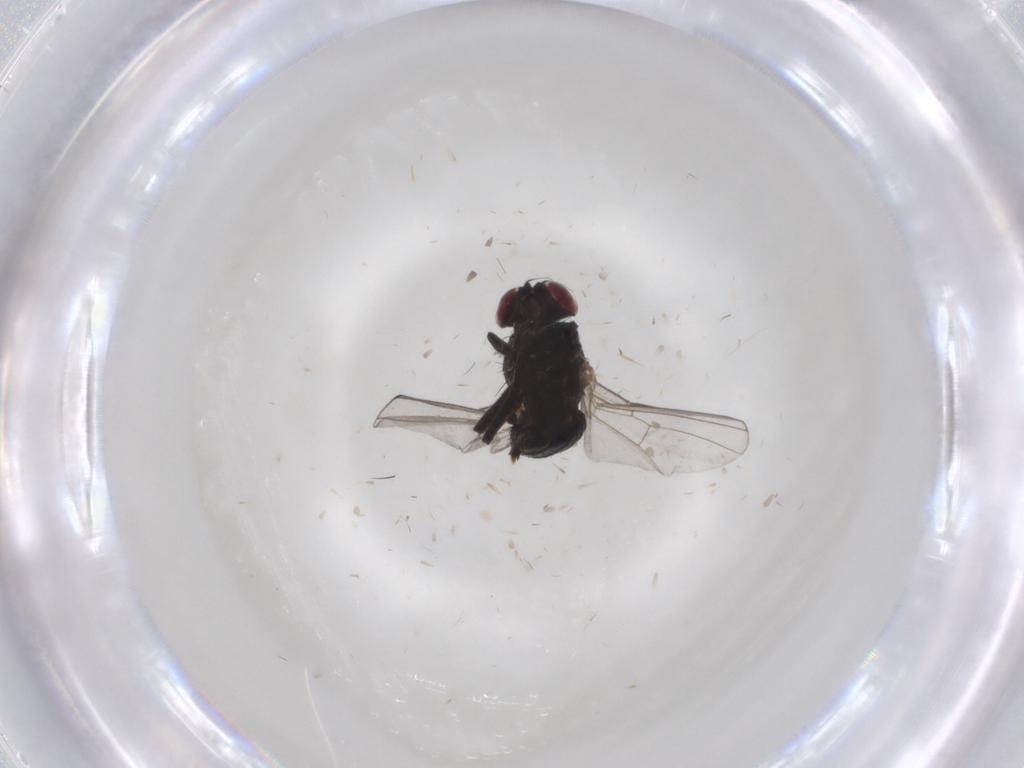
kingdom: Animalia
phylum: Arthropoda
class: Insecta
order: Diptera
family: Agromyzidae
